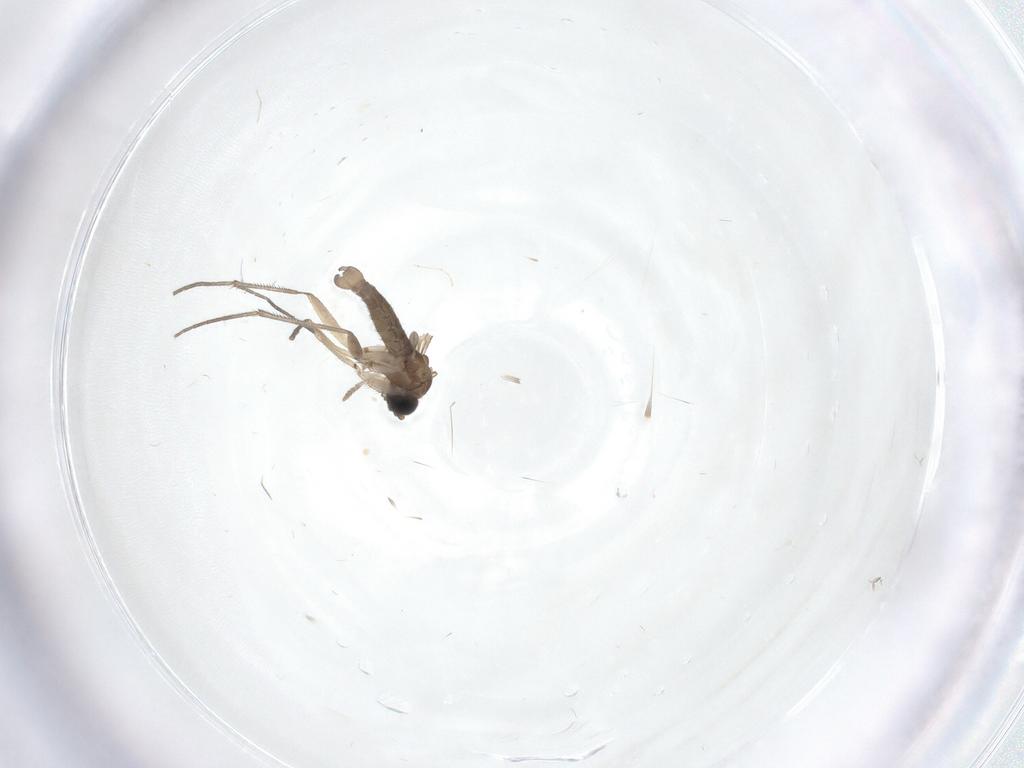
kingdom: Animalia
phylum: Arthropoda
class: Insecta
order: Diptera
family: Sciaridae
